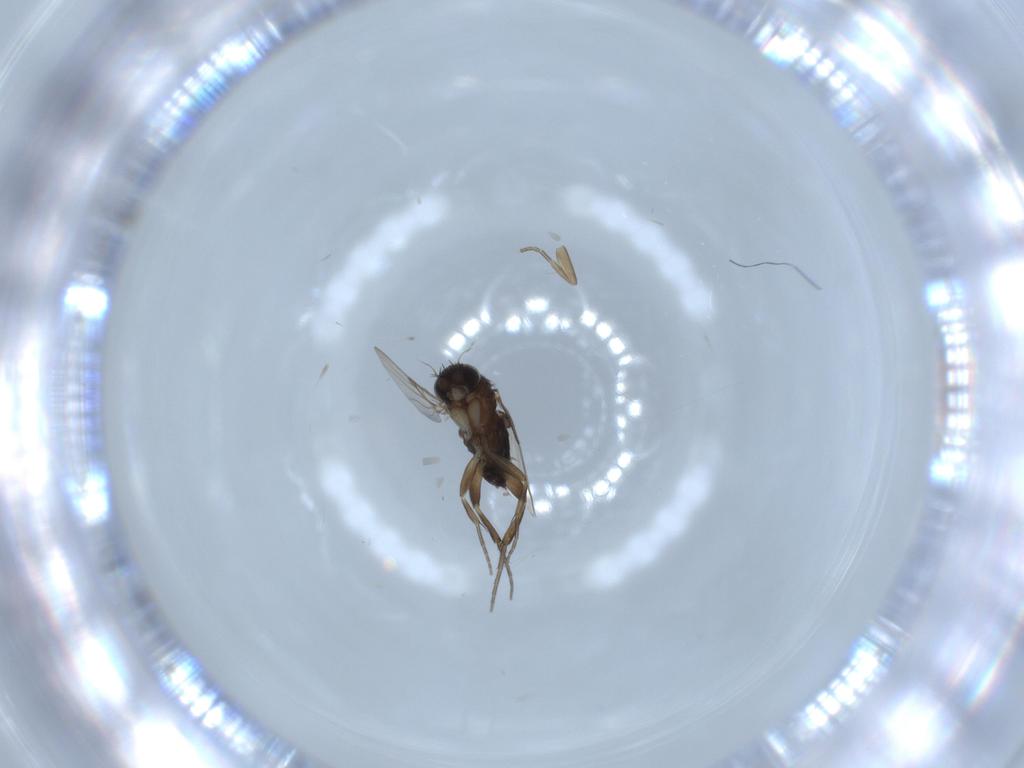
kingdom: Animalia
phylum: Arthropoda
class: Insecta
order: Diptera
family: Phoridae
